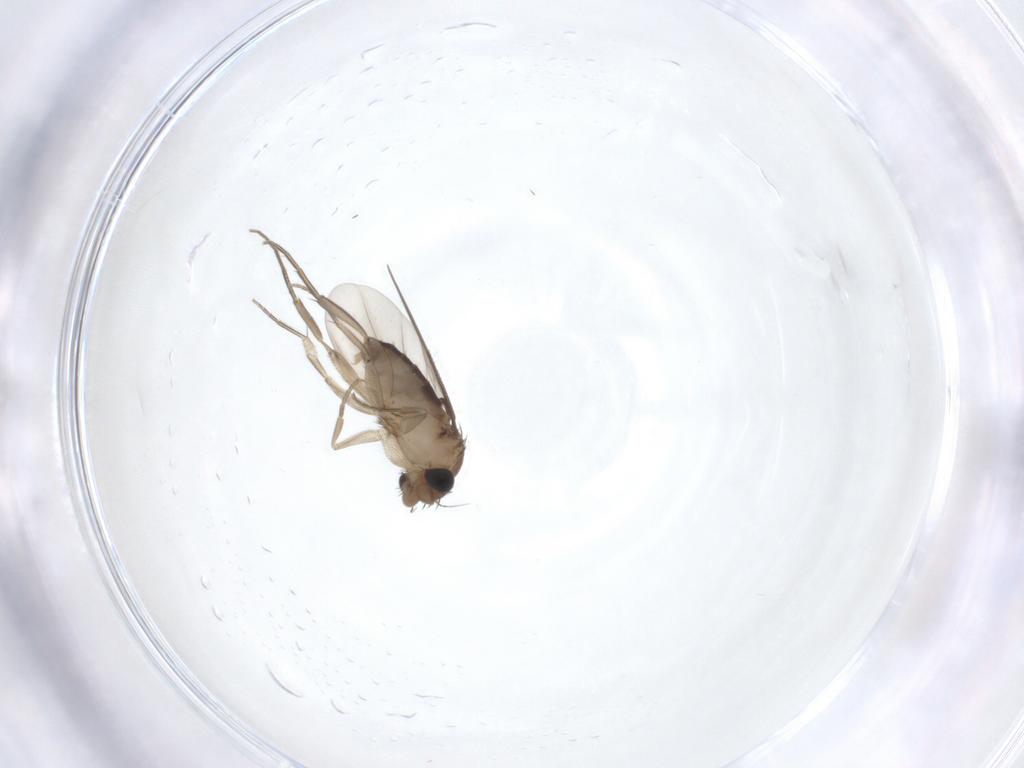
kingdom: Animalia
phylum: Arthropoda
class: Insecta
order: Diptera
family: Phoridae
